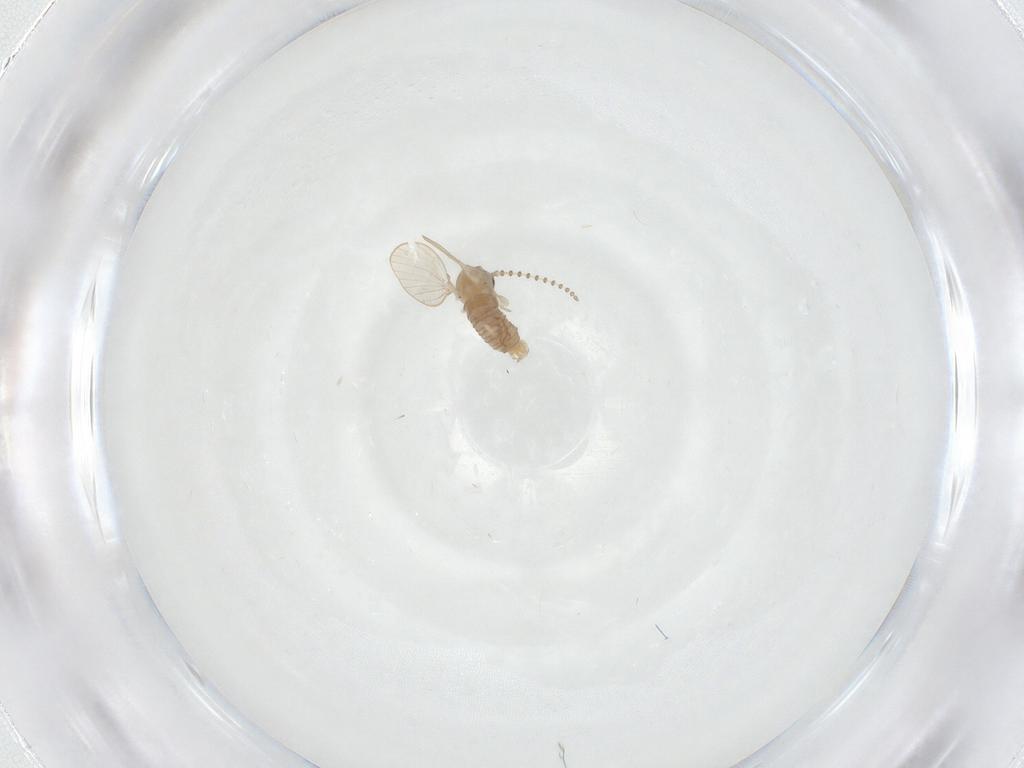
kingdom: Animalia
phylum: Arthropoda
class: Insecta
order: Diptera
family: Psychodidae
